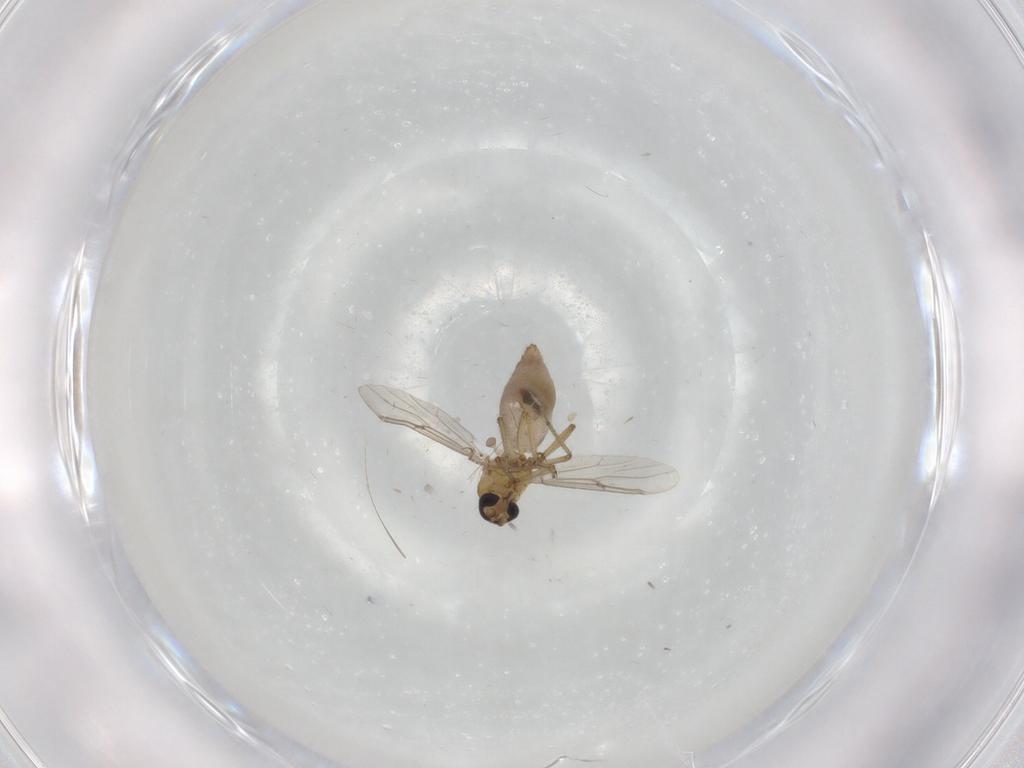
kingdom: Animalia
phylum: Arthropoda
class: Insecta
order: Diptera
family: Ceratopogonidae
